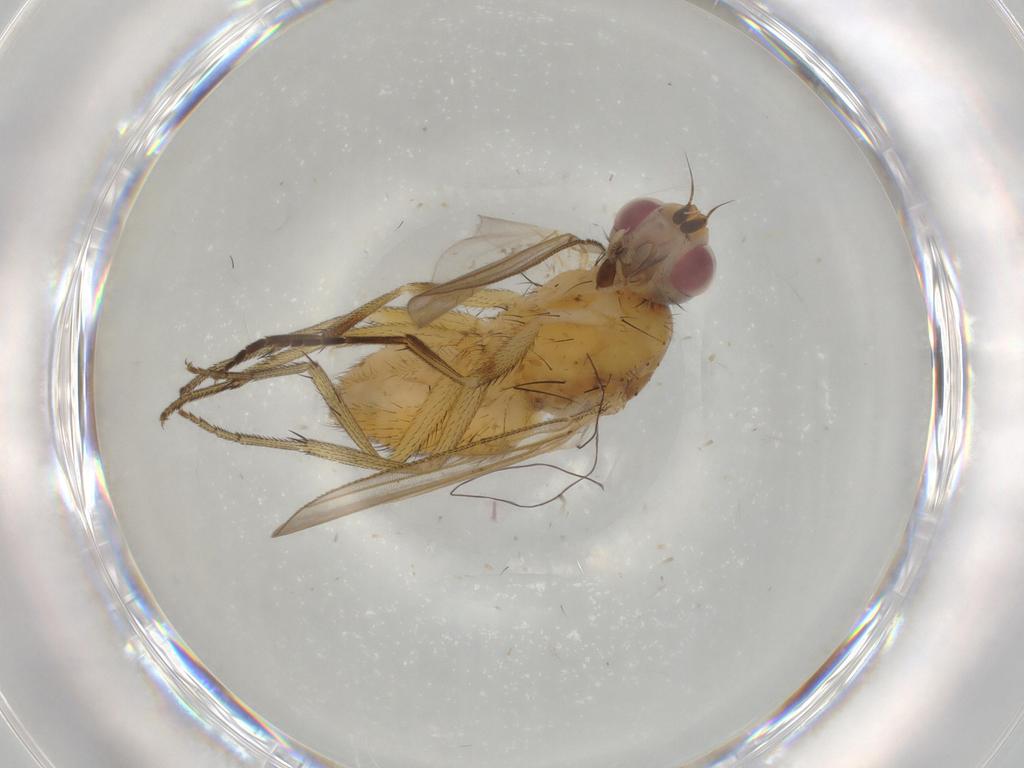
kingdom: Animalia
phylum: Arthropoda
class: Insecta
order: Diptera
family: Muscidae
